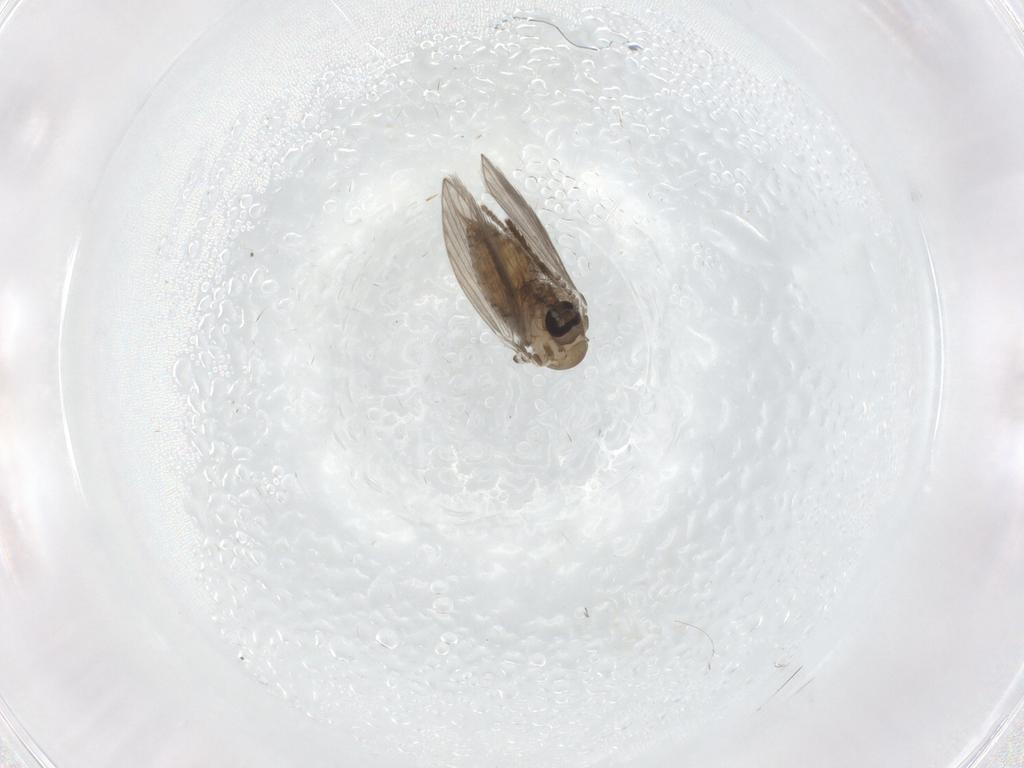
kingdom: Animalia
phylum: Arthropoda
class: Insecta
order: Diptera
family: Psychodidae
